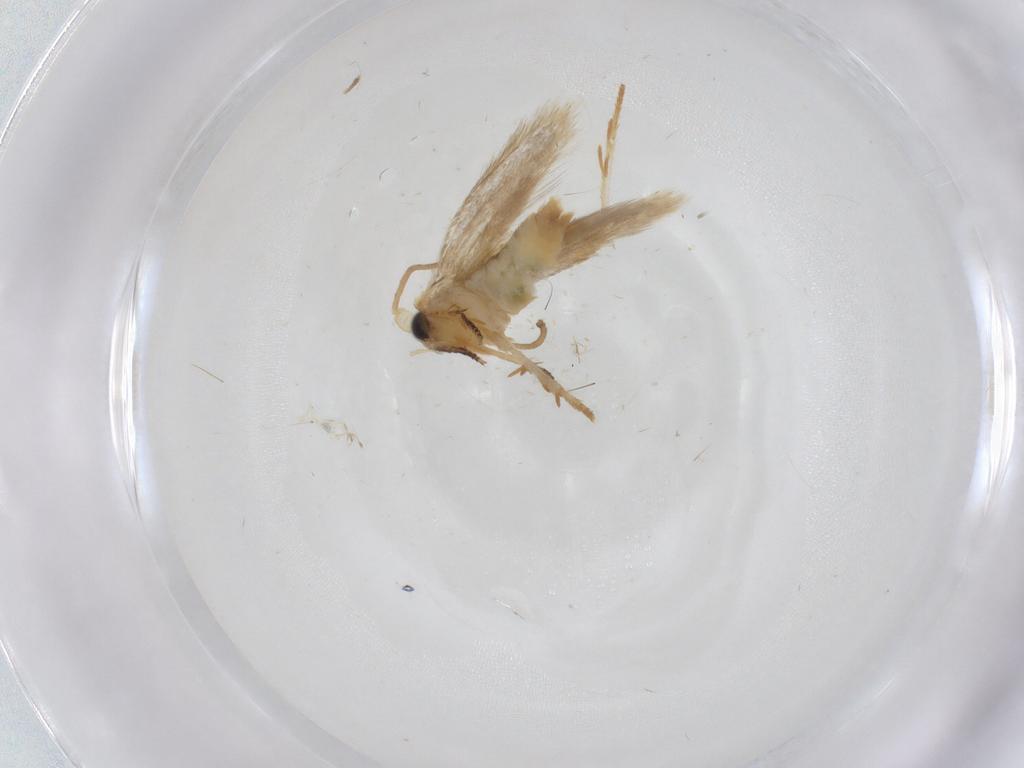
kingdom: Animalia
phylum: Arthropoda
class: Insecta
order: Lepidoptera
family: Nepticulidae
